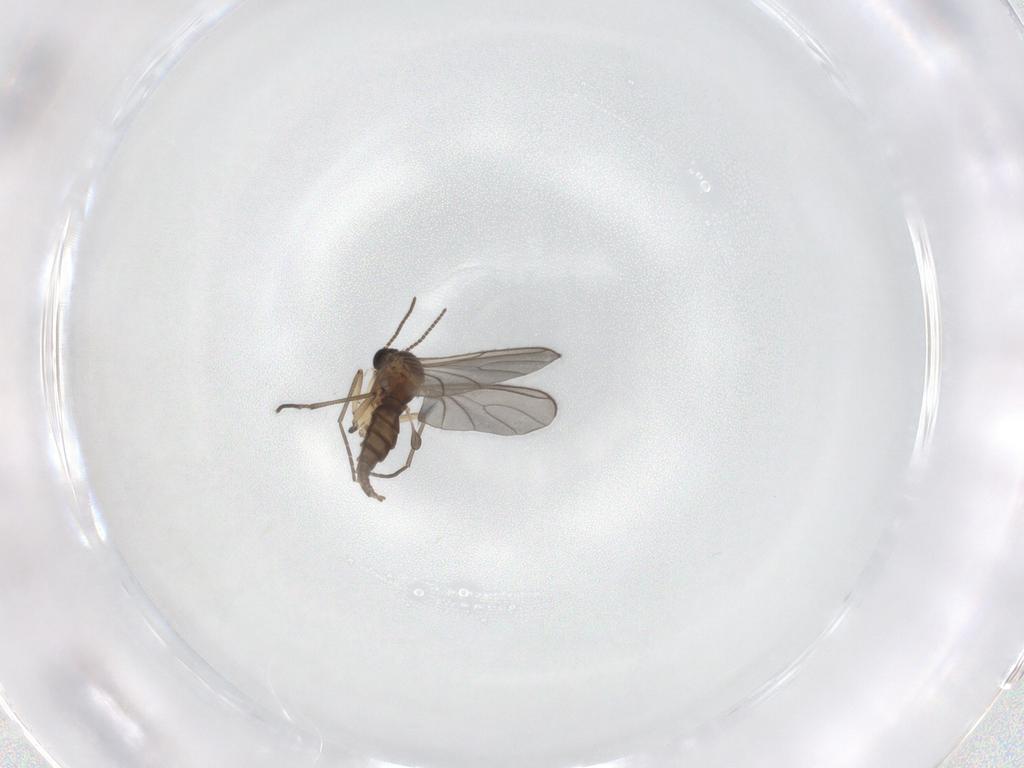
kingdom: Animalia
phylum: Arthropoda
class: Insecta
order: Diptera
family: Sciaridae
